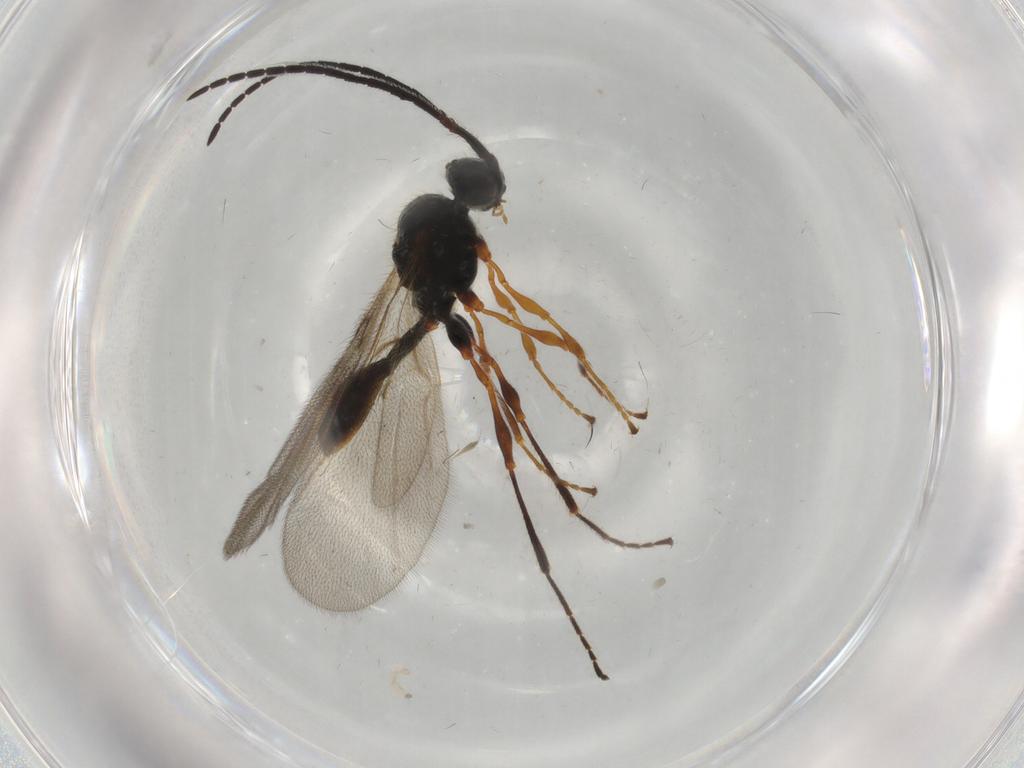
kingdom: Animalia
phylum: Arthropoda
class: Insecta
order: Hymenoptera
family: Diapriidae
